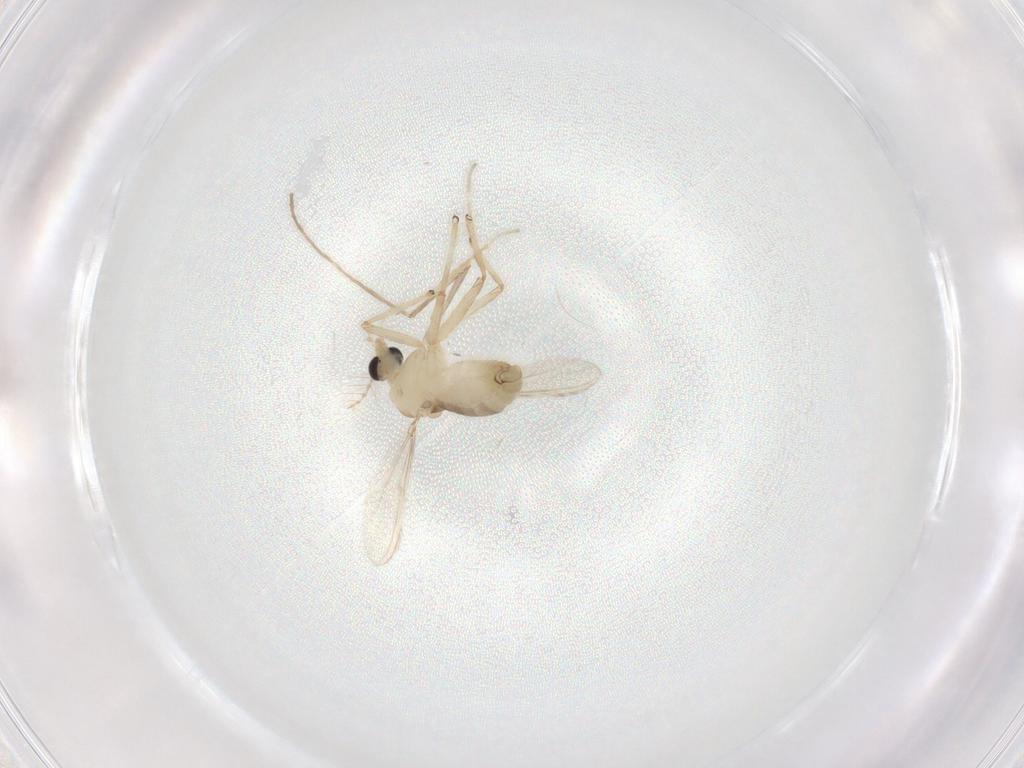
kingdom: Animalia
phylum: Arthropoda
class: Insecta
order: Diptera
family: Chironomidae
